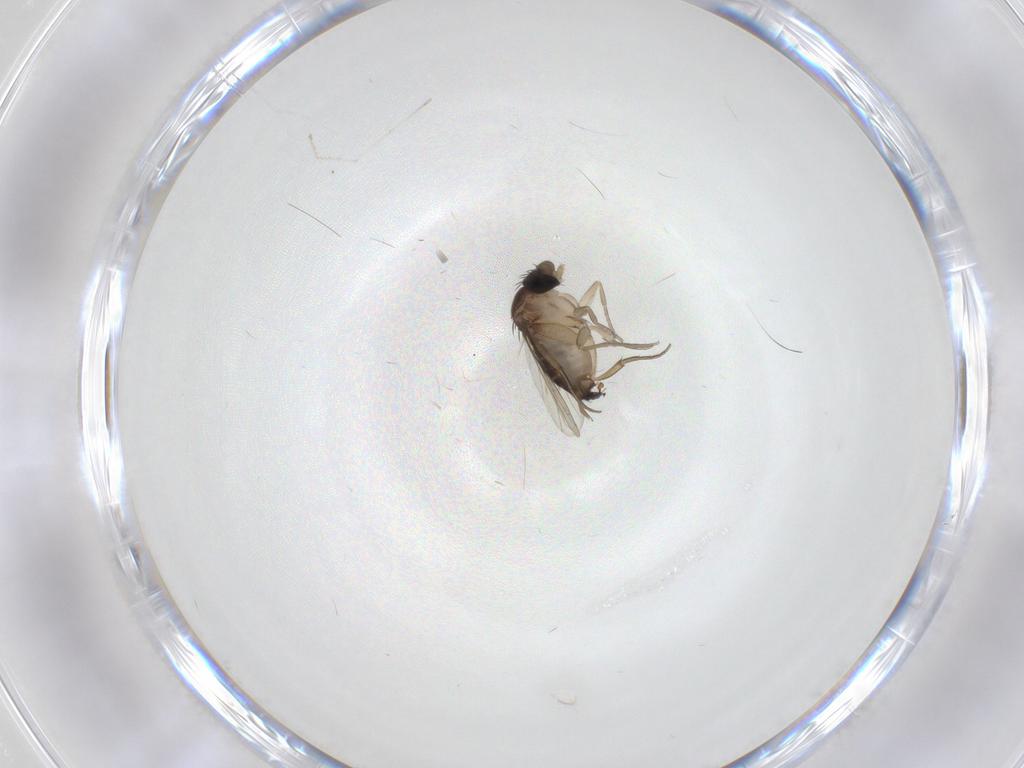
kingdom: Animalia
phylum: Arthropoda
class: Insecta
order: Diptera
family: Cecidomyiidae
